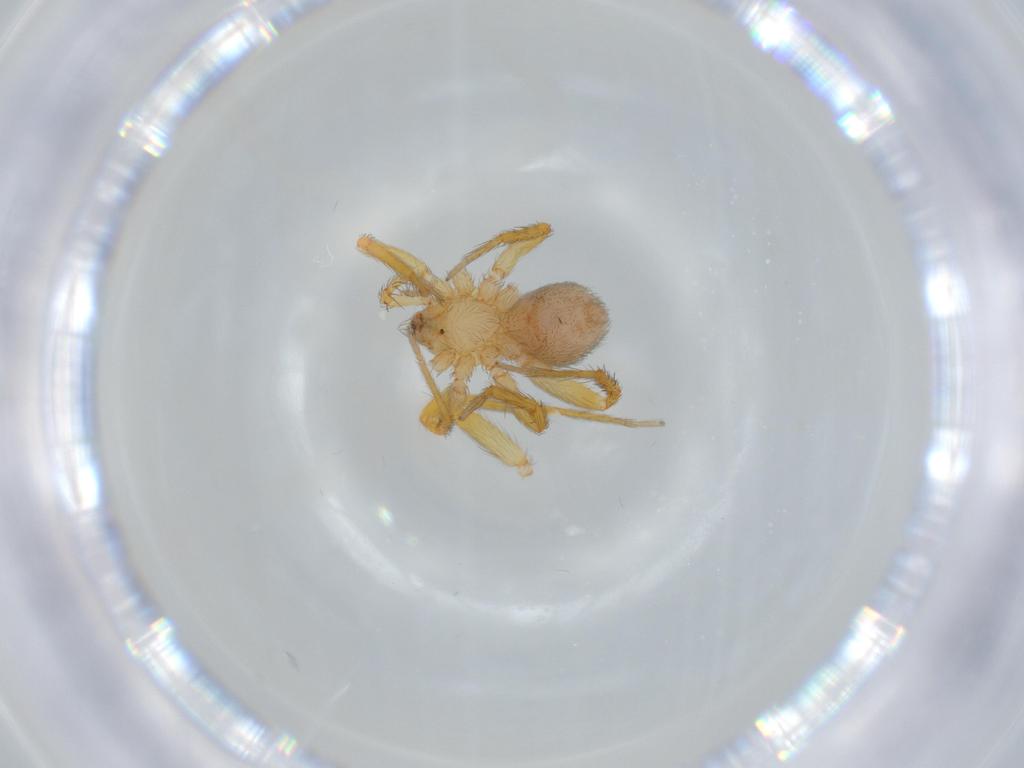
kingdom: Animalia
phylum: Arthropoda
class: Arachnida
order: Araneae
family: Oonopidae
